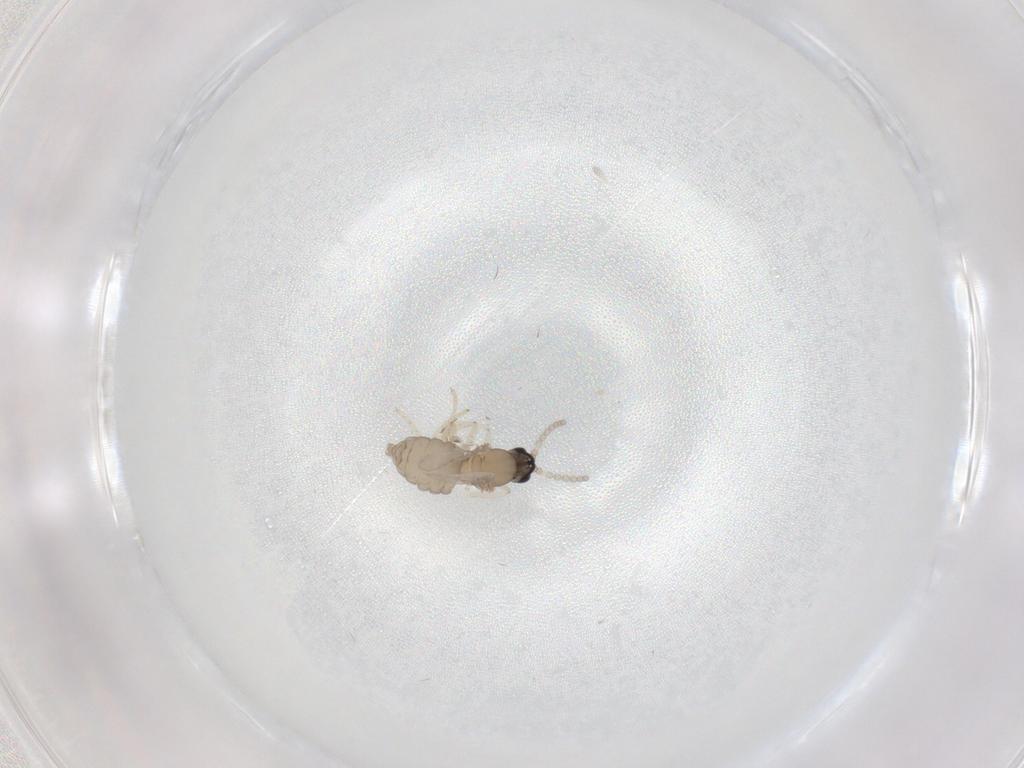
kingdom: Animalia
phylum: Arthropoda
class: Insecta
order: Diptera
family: Cecidomyiidae
